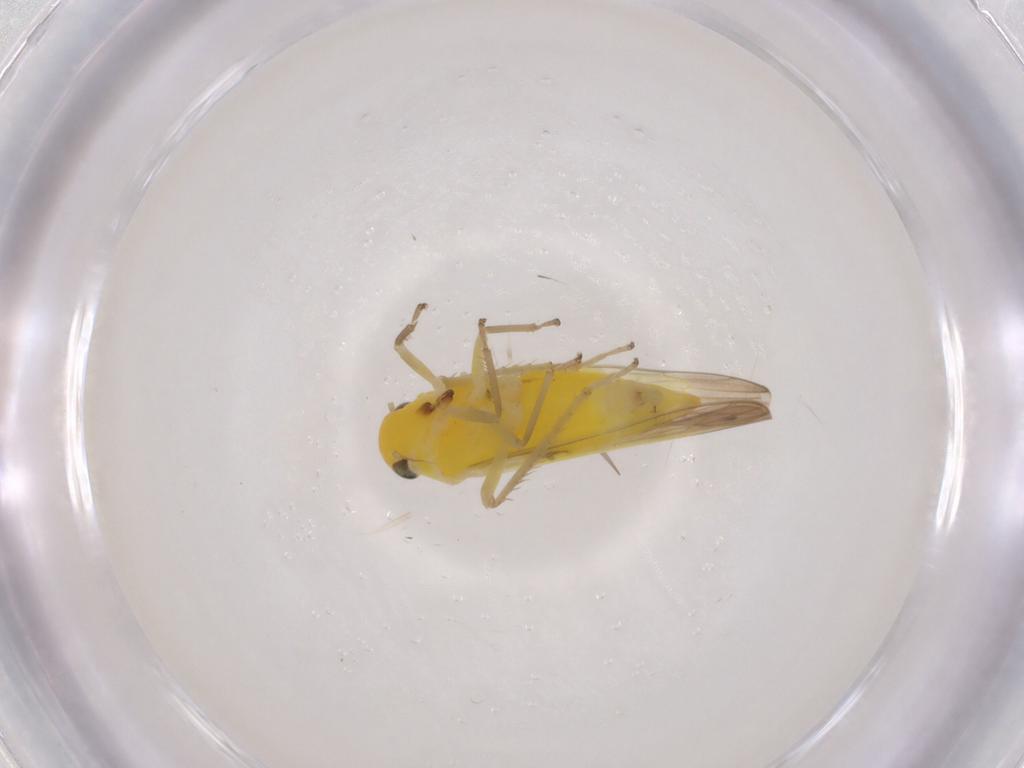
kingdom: Animalia
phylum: Arthropoda
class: Insecta
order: Hemiptera
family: Cicadellidae
